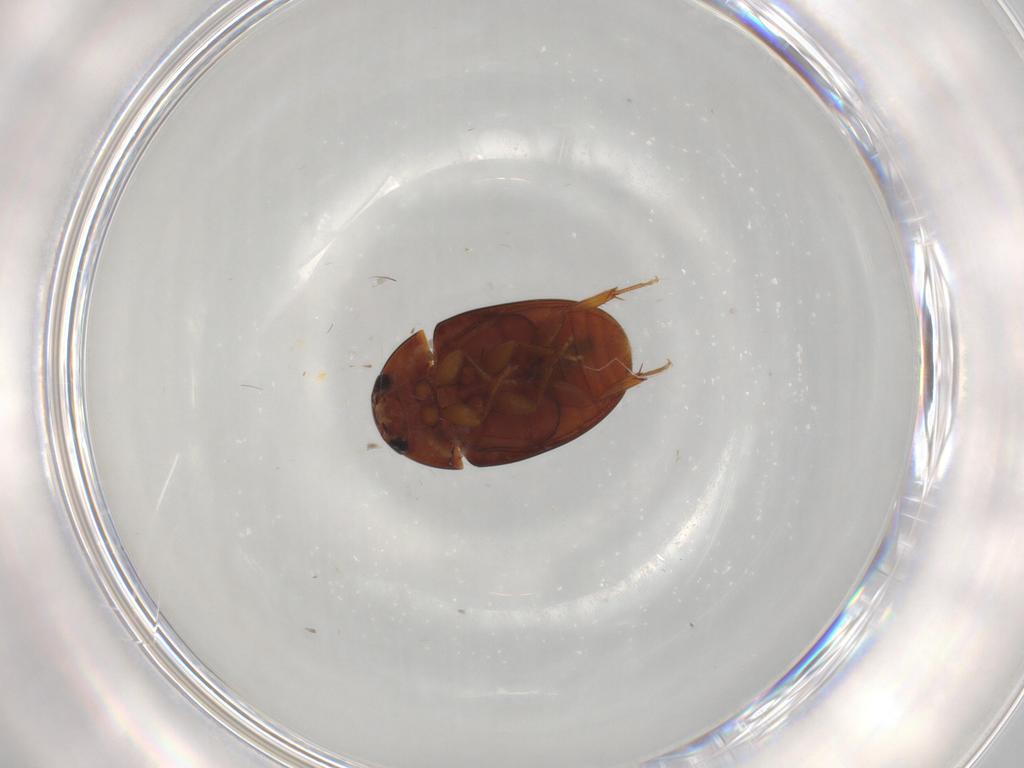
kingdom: Animalia
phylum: Arthropoda
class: Insecta
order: Coleoptera
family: Phalacridae
